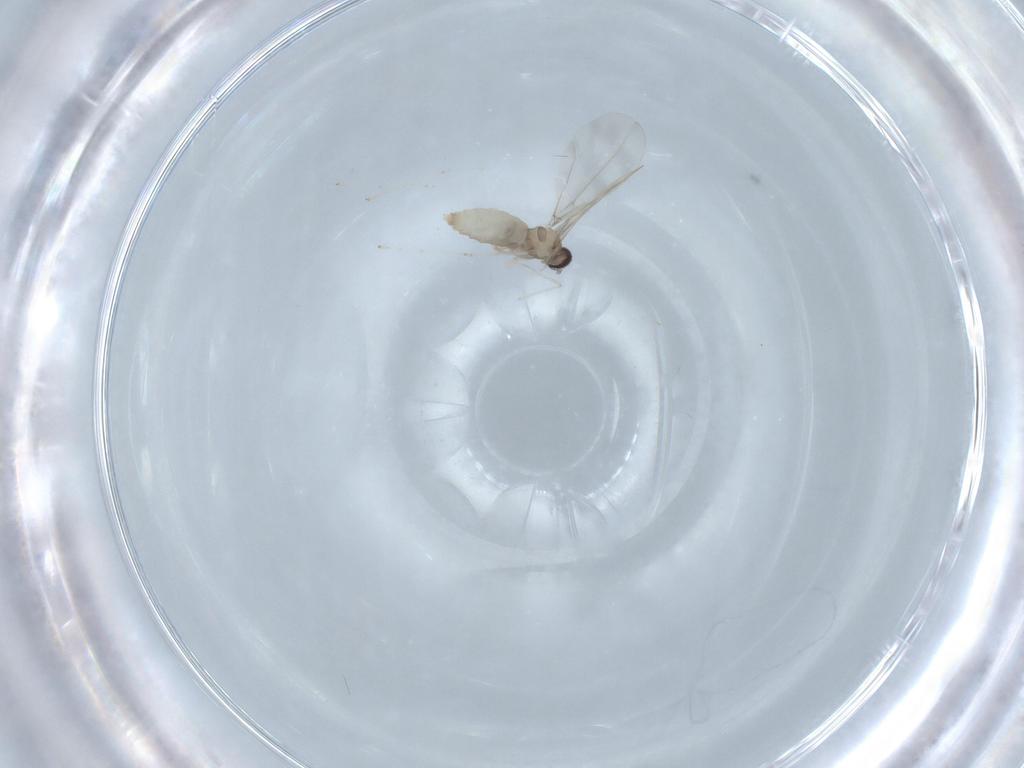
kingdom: Animalia
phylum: Arthropoda
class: Insecta
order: Diptera
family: Cecidomyiidae
